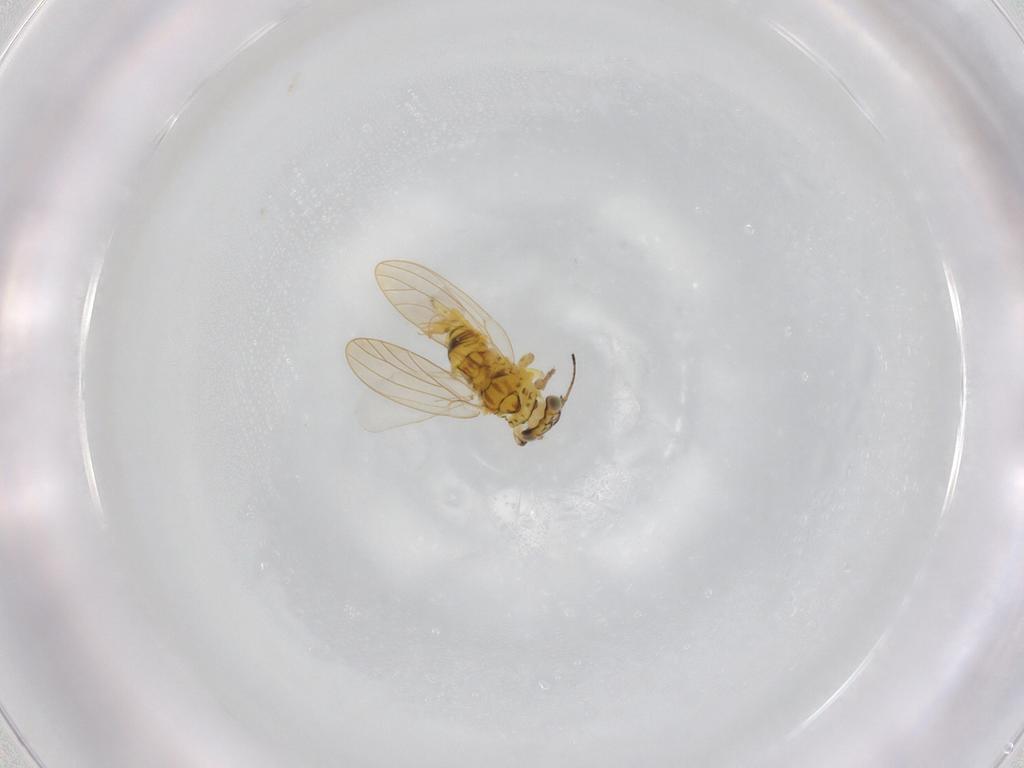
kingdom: Animalia
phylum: Arthropoda
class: Insecta
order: Hemiptera
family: Aphalaridae
